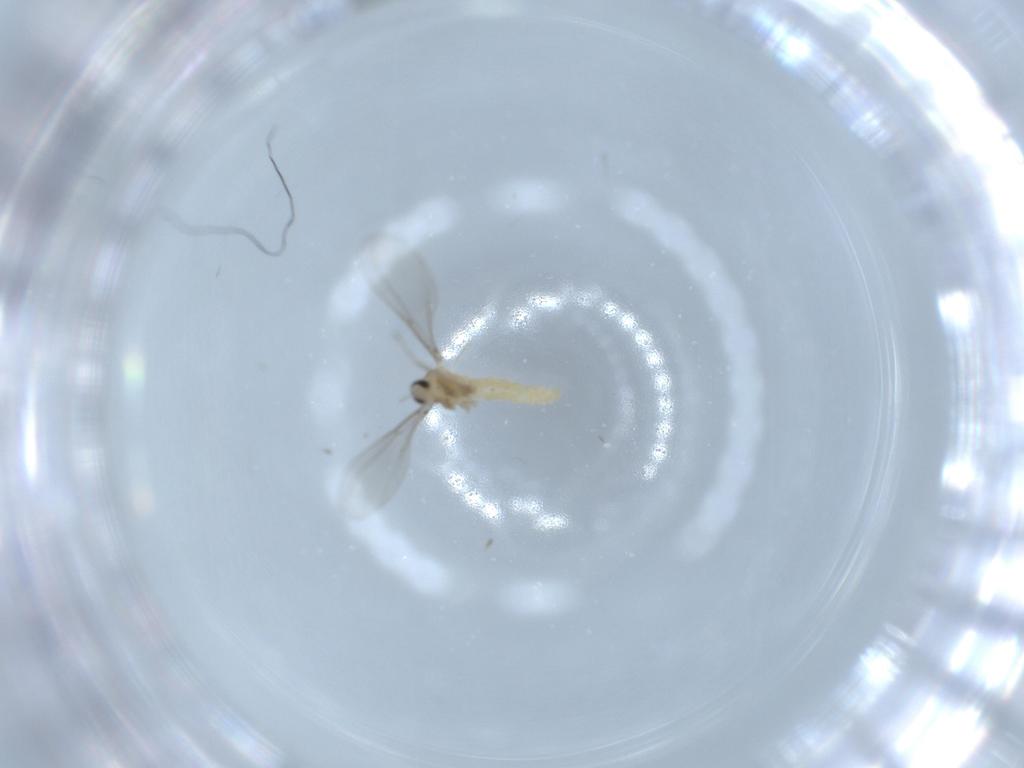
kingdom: Animalia
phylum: Arthropoda
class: Insecta
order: Diptera
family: Cecidomyiidae
